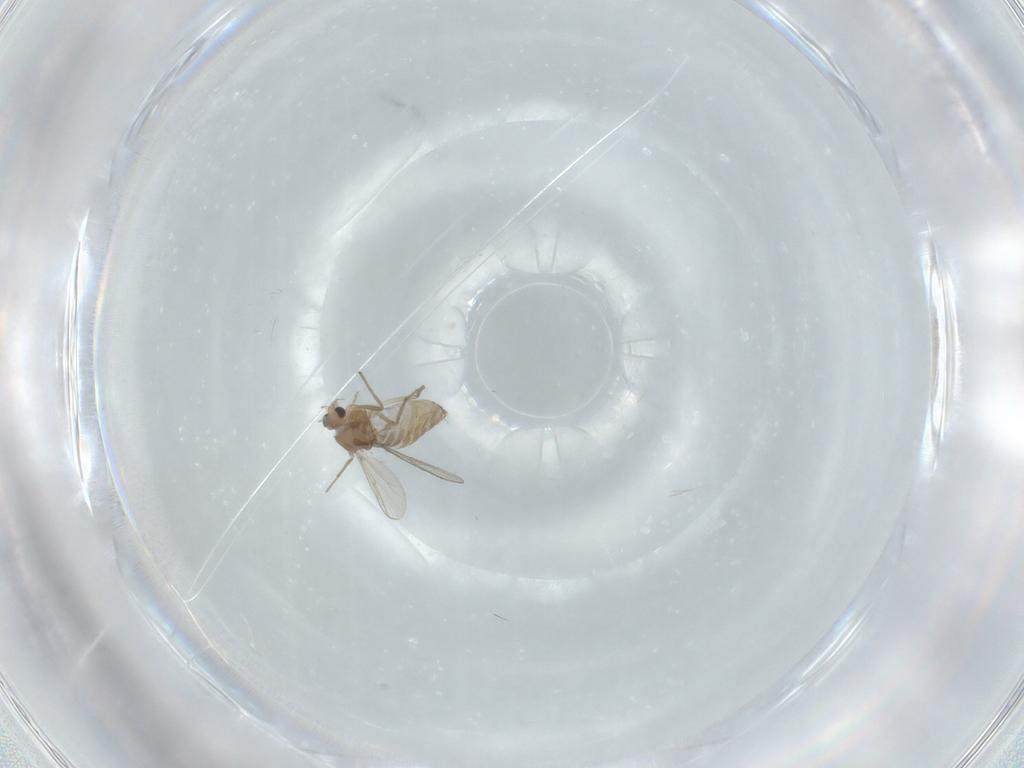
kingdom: Animalia
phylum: Arthropoda
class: Insecta
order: Diptera
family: Chironomidae
